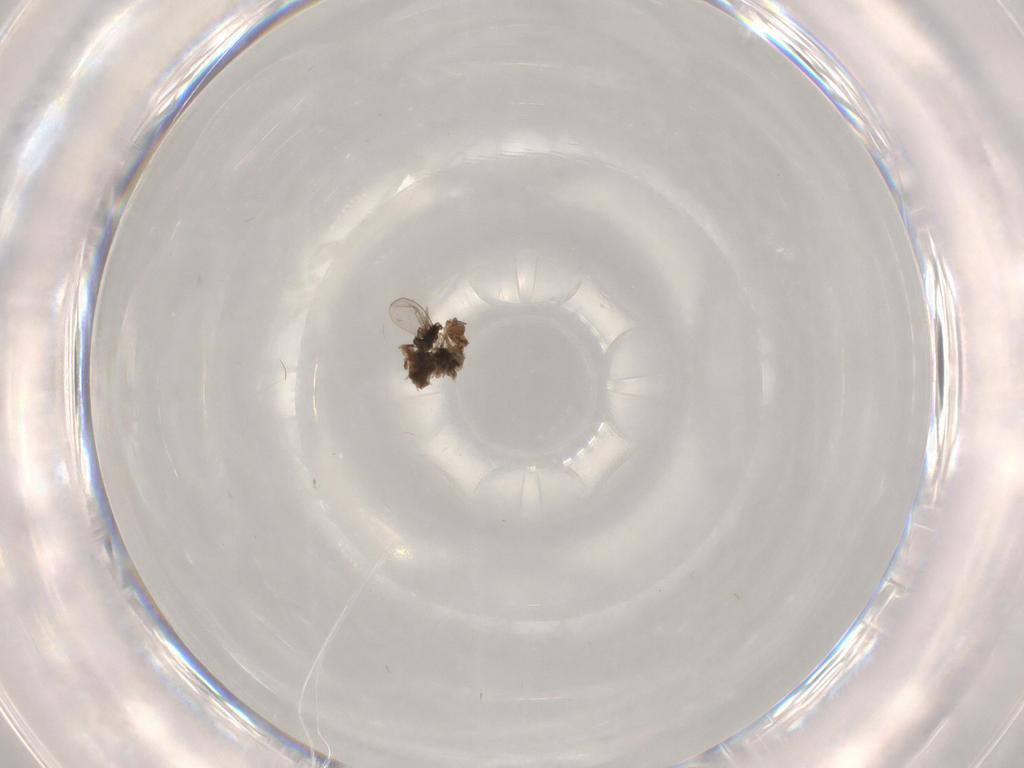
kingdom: Animalia
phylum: Arthropoda
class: Insecta
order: Diptera
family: Cecidomyiidae
